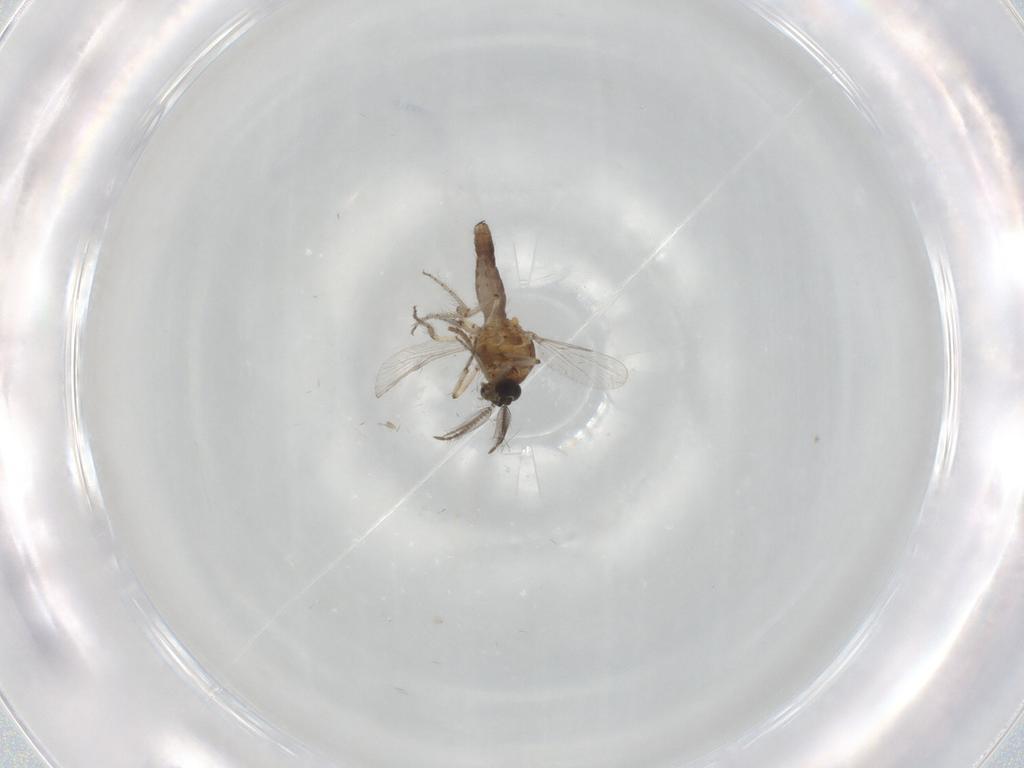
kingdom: Animalia
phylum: Arthropoda
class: Insecta
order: Diptera
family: Ceratopogonidae
